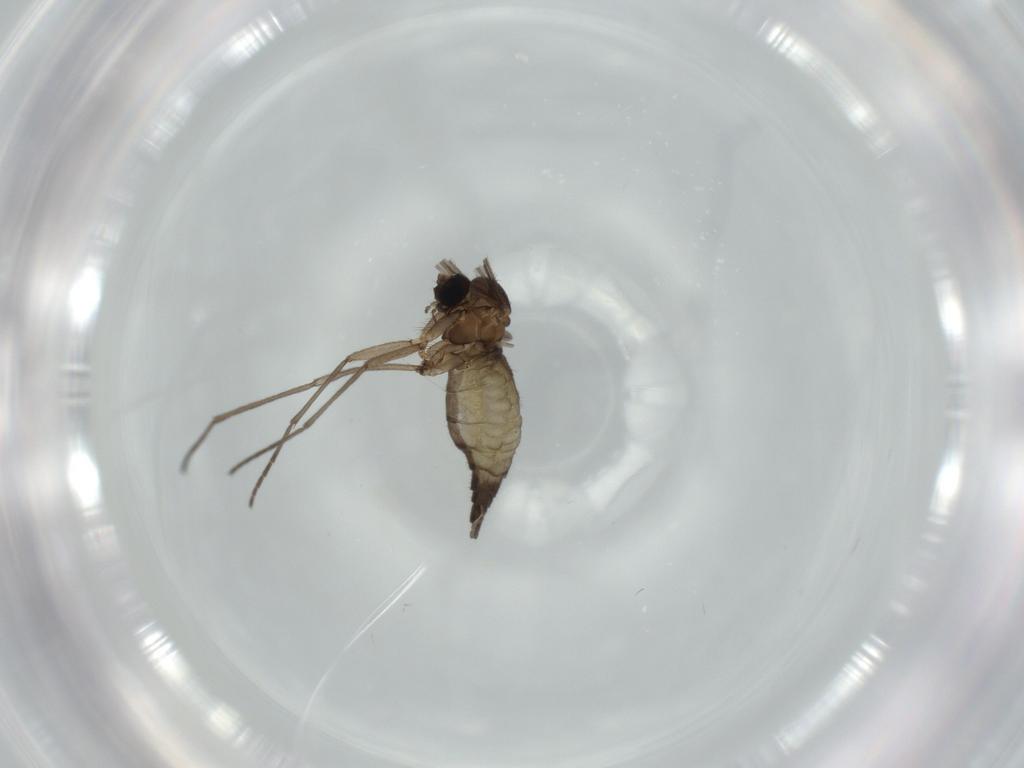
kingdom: Animalia
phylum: Arthropoda
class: Insecta
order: Diptera
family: Sciaridae
